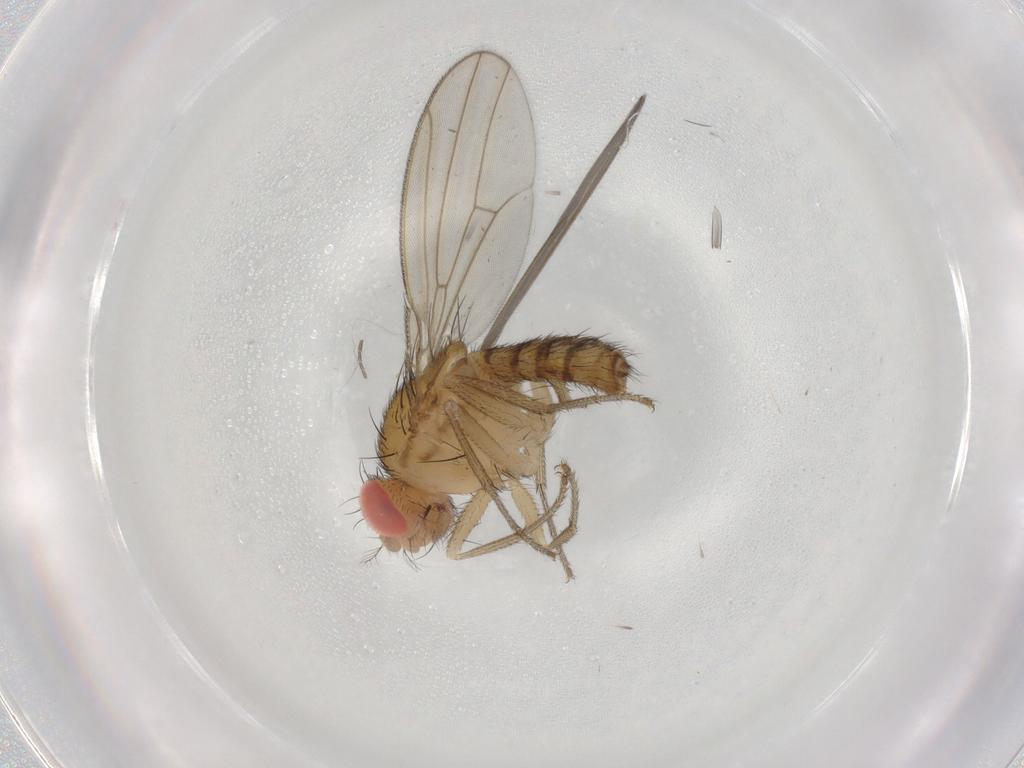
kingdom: Animalia
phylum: Arthropoda
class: Insecta
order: Diptera
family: Drosophilidae
